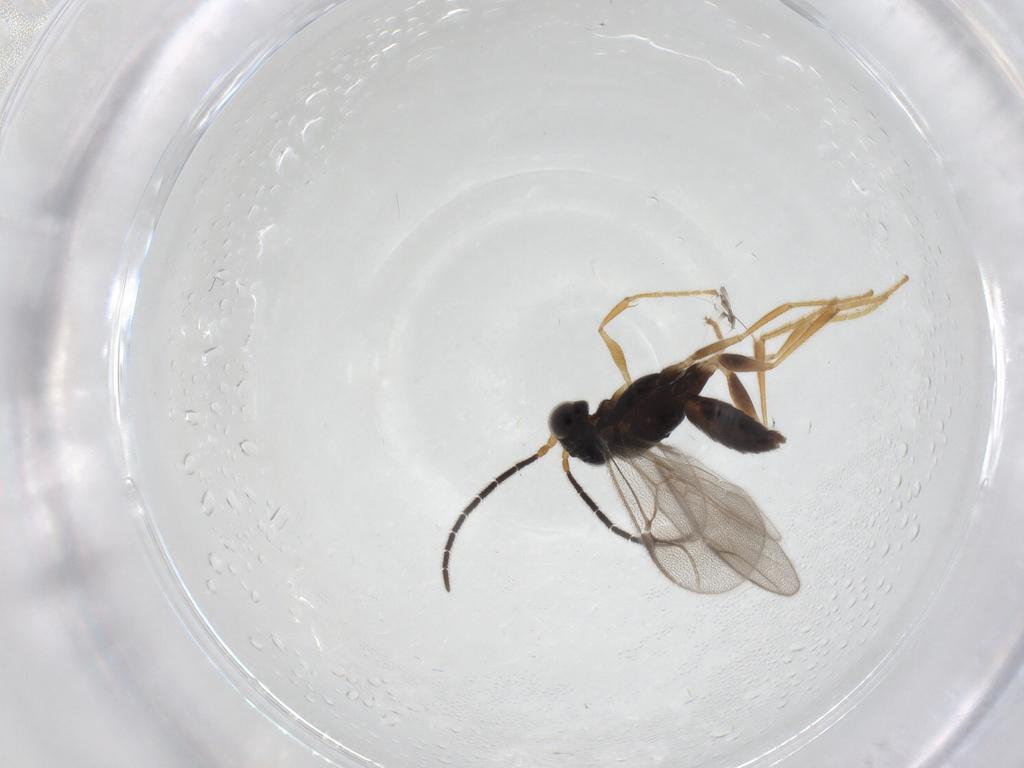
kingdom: Animalia
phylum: Arthropoda
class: Insecta
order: Hymenoptera
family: Dryinidae
